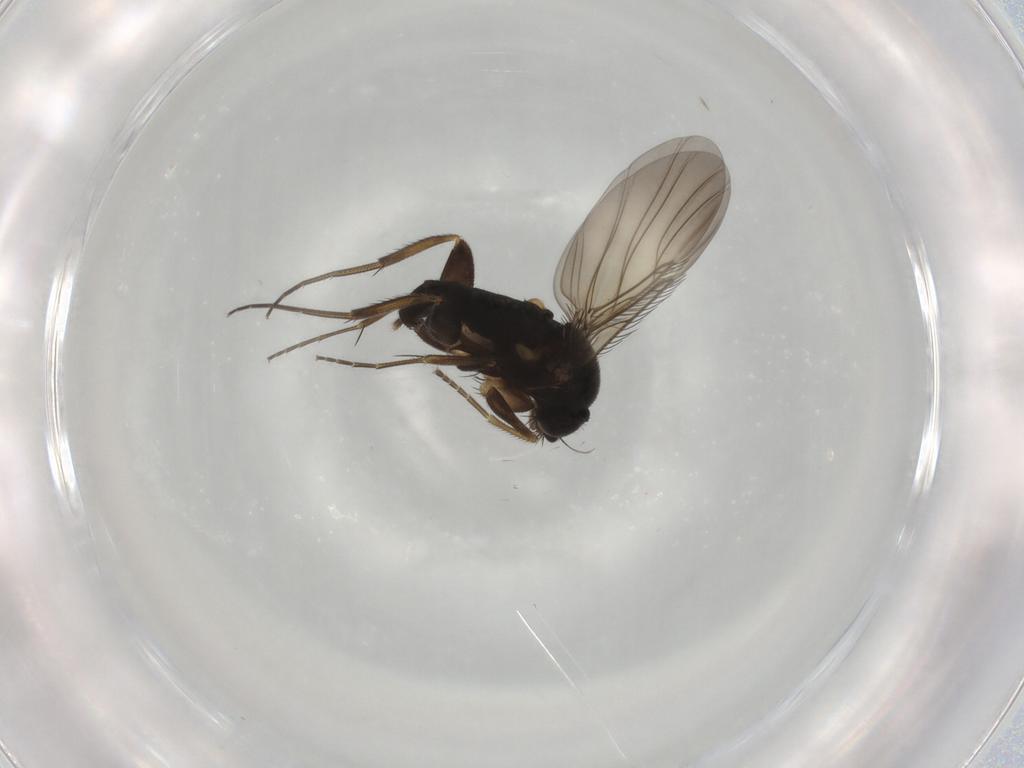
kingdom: Animalia
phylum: Arthropoda
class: Insecta
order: Diptera
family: Phoridae
